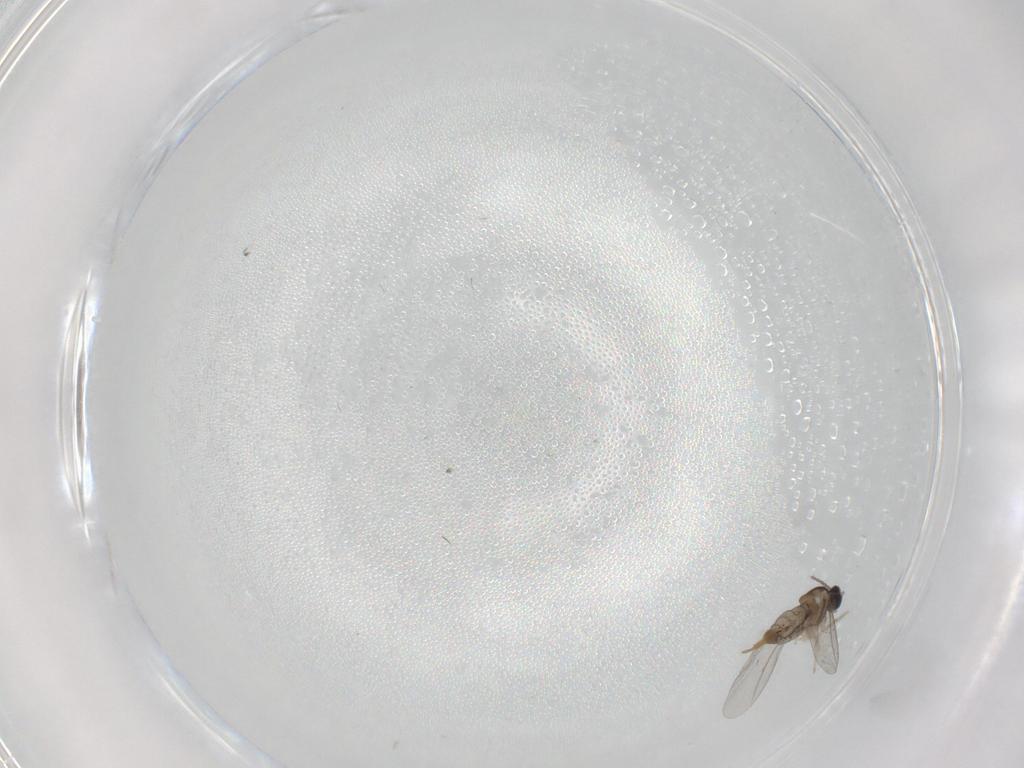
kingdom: Animalia
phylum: Arthropoda
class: Insecta
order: Diptera
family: Cecidomyiidae
